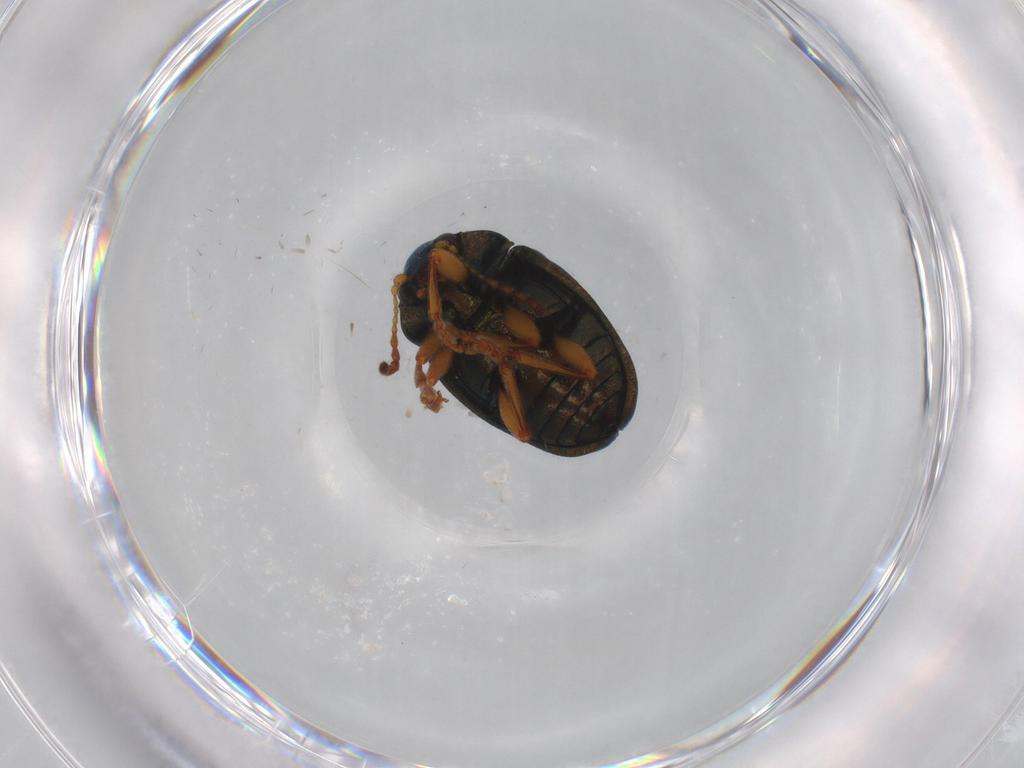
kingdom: Animalia
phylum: Arthropoda
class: Insecta
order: Coleoptera
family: Chrysomelidae
